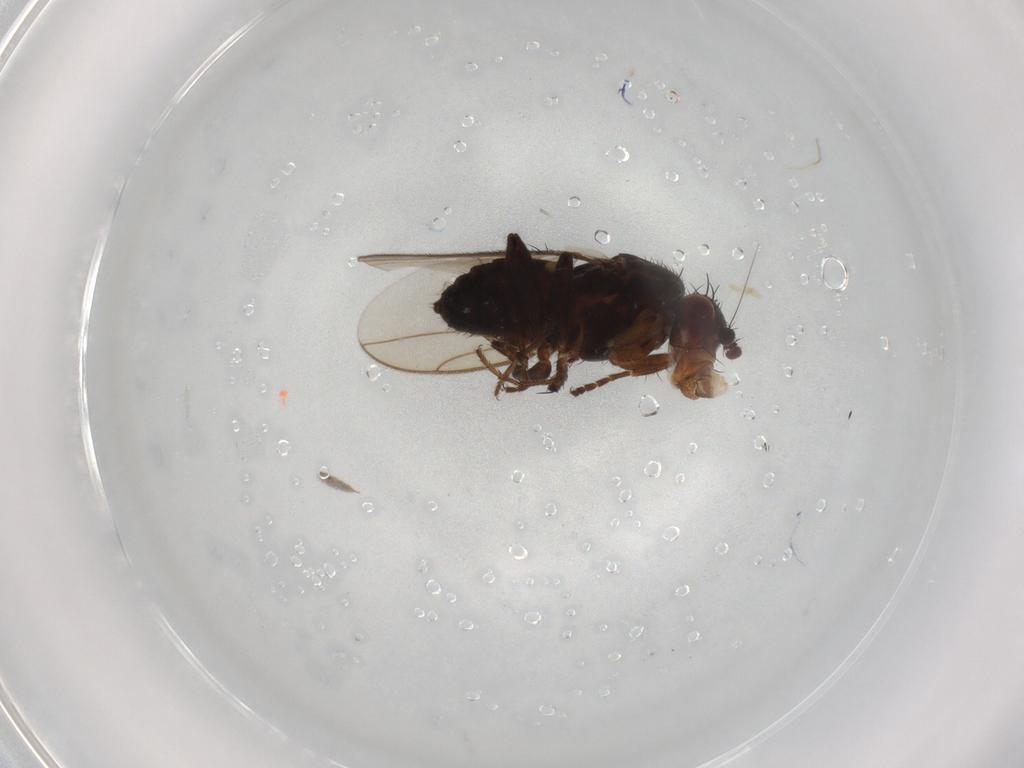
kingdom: Animalia
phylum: Arthropoda
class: Insecta
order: Diptera
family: Sphaeroceridae
